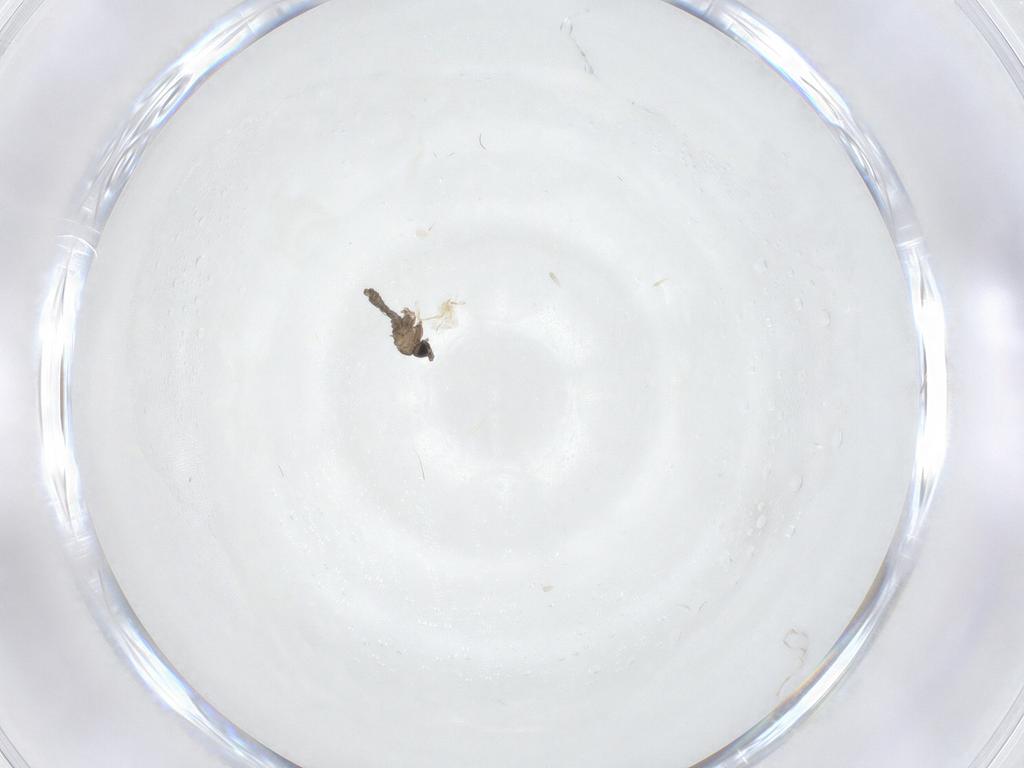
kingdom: Animalia
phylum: Arthropoda
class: Insecta
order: Diptera
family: Sciaridae
